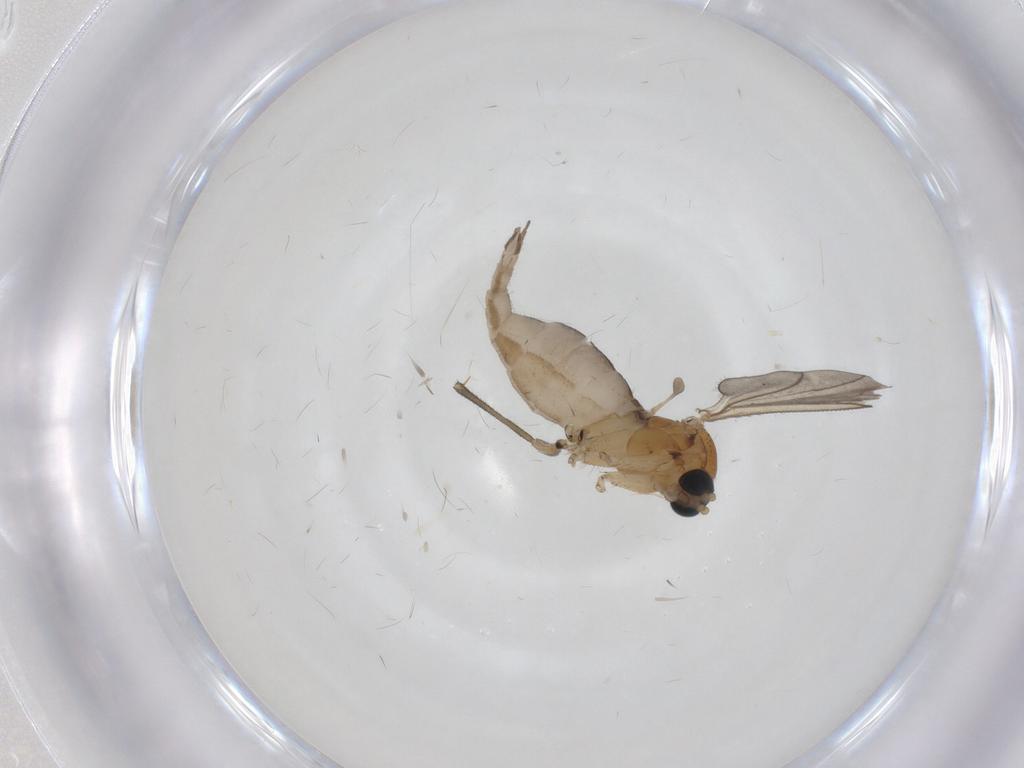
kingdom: Animalia
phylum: Arthropoda
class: Insecta
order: Diptera
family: Sciaridae
